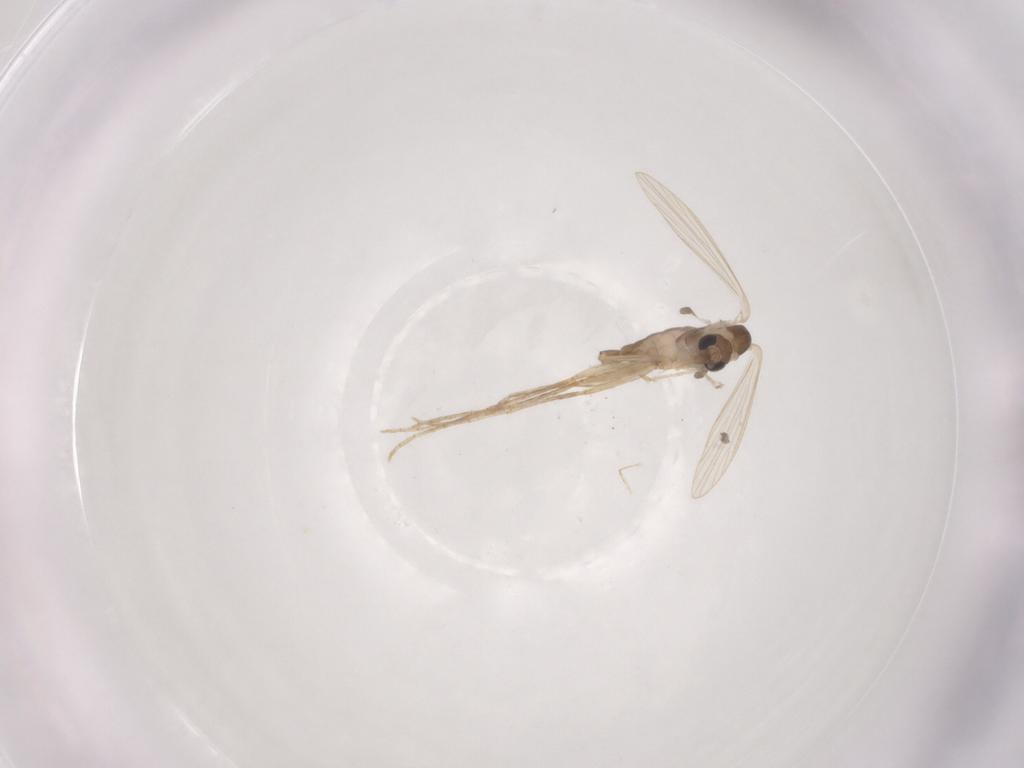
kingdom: Animalia
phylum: Arthropoda
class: Insecta
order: Diptera
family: Psychodidae
